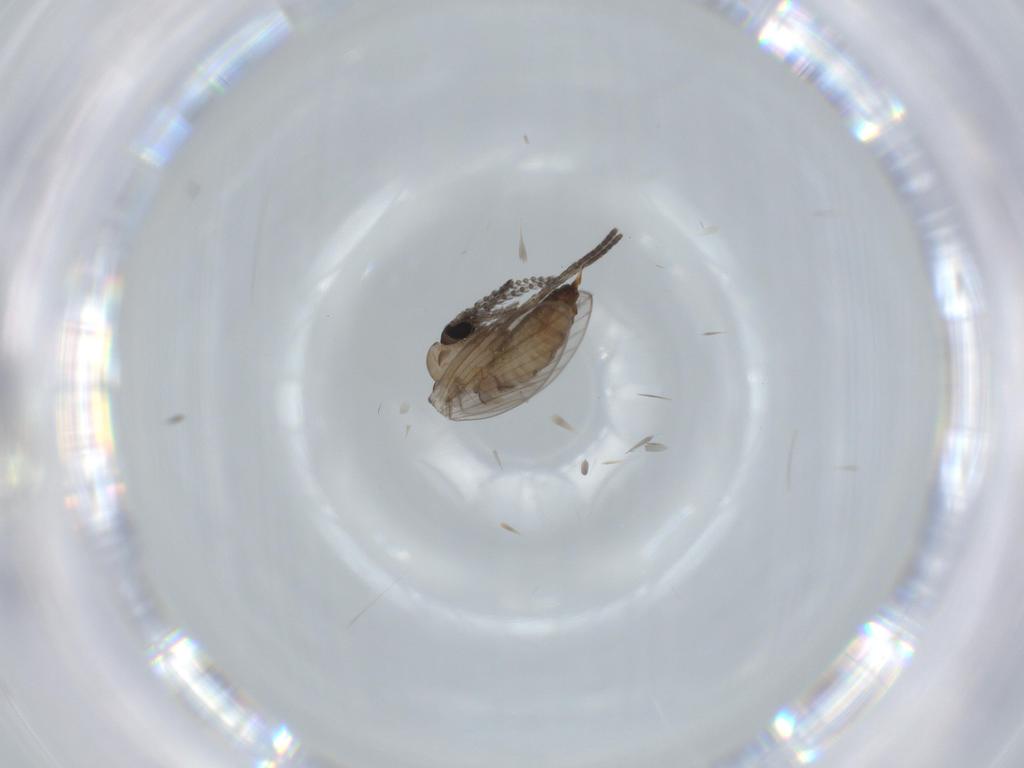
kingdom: Animalia
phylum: Arthropoda
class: Insecta
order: Diptera
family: Psychodidae
